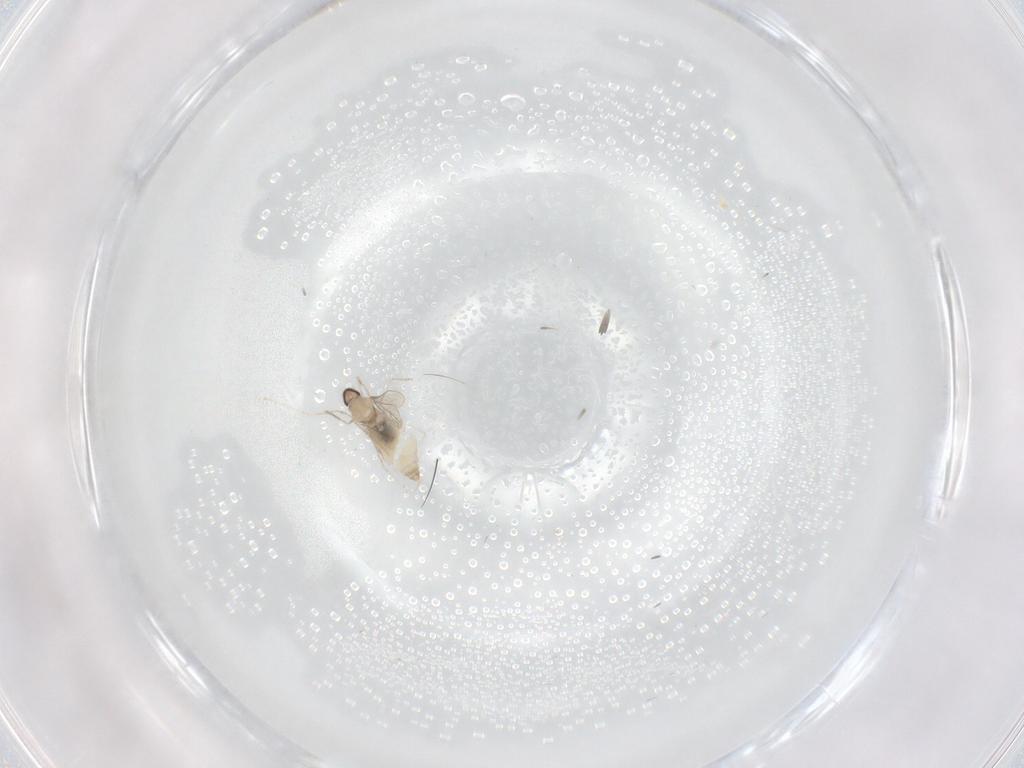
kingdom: Animalia
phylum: Arthropoda
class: Insecta
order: Diptera
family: Cecidomyiidae
